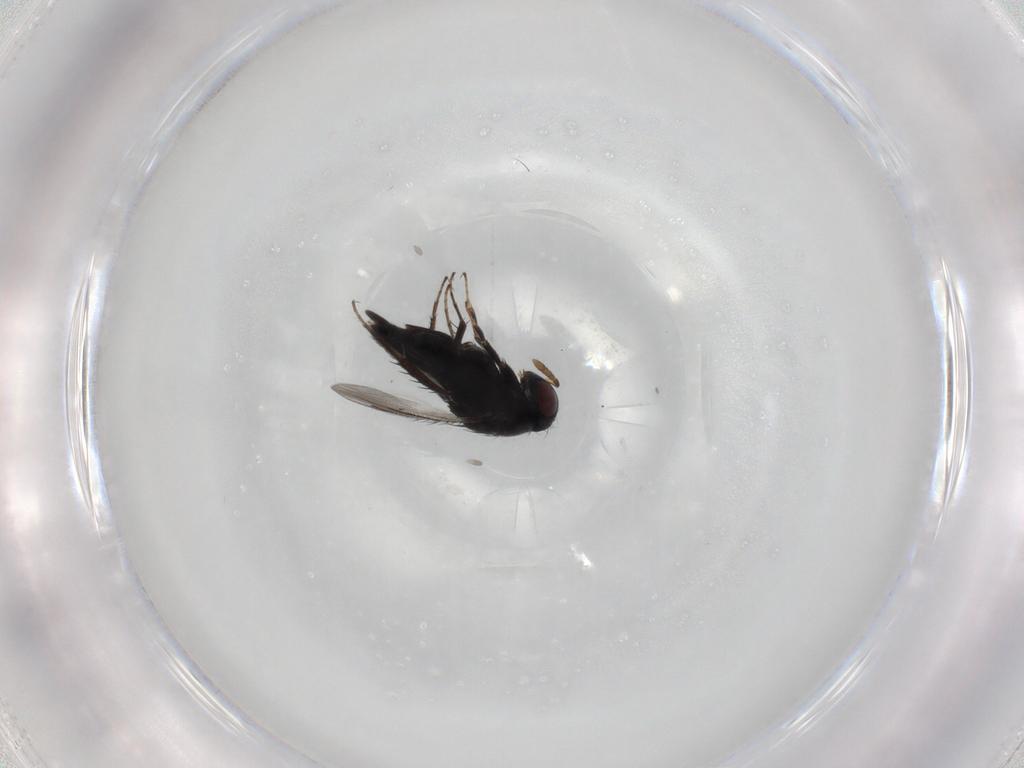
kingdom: Animalia
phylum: Arthropoda
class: Insecta
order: Hymenoptera
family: Pirenidae
